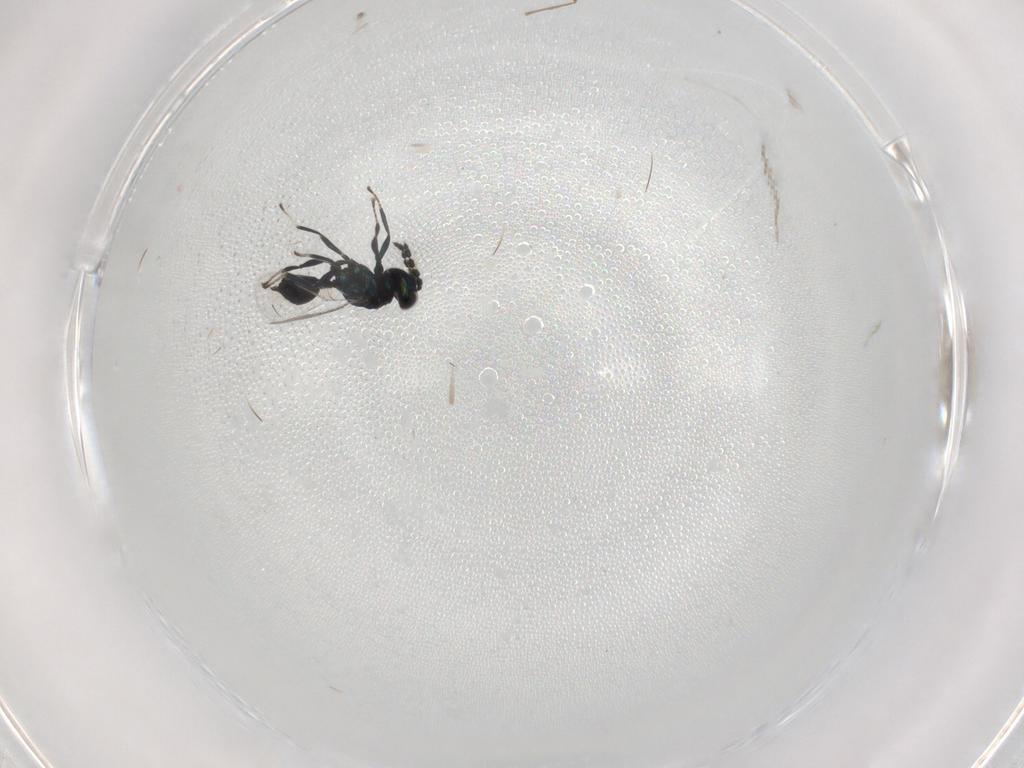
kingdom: Animalia
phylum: Arthropoda
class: Insecta
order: Hymenoptera
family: Eulophidae
